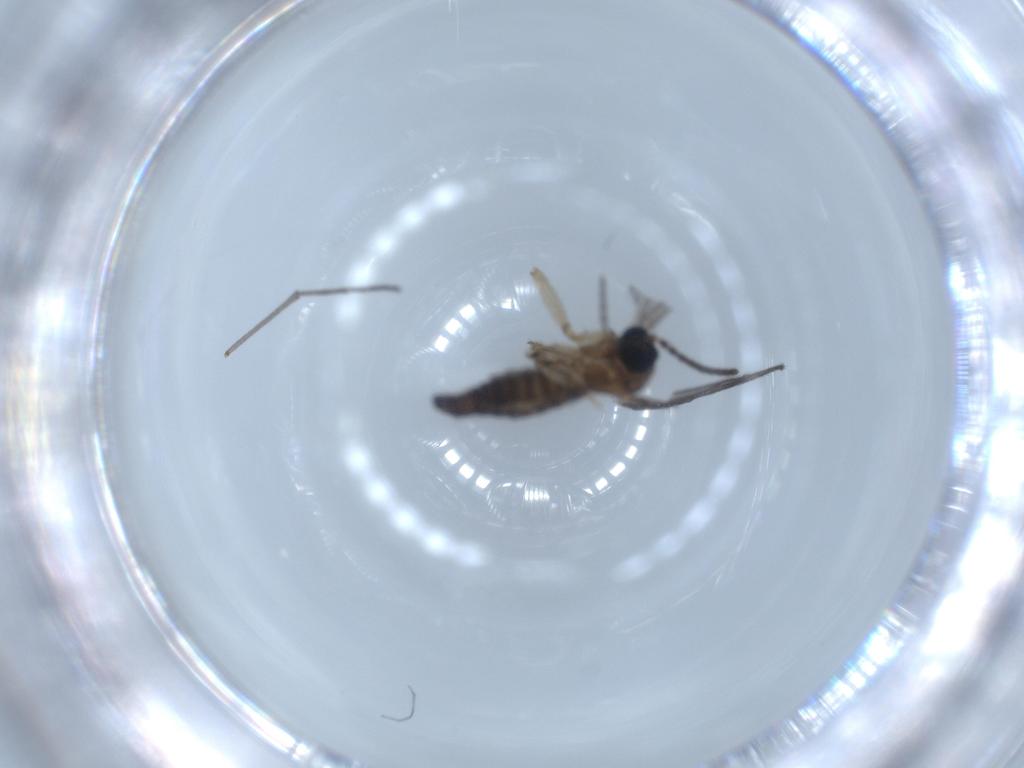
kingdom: Animalia
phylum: Arthropoda
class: Insecta
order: Diptera
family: Sciaridae
